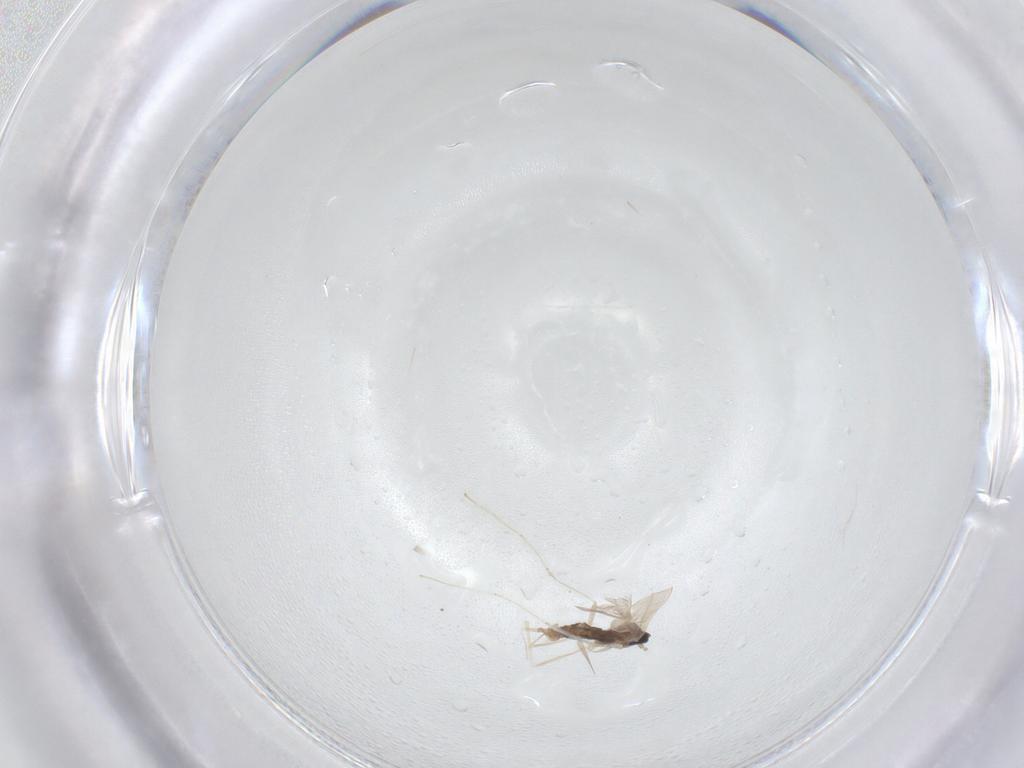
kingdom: Animalia
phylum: Arthropoda
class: Insecta
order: Diptera
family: Cecidomyiidae
